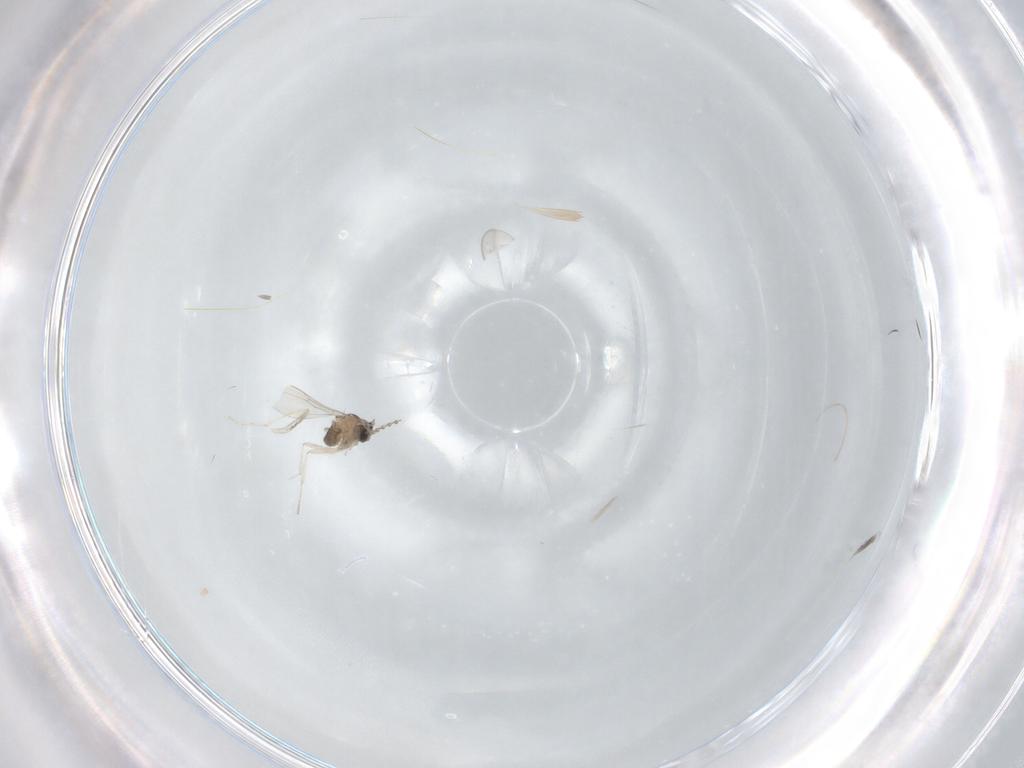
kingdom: Animalia
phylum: Arthropoda
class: Insecta
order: Diptera
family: Cecidomyiidae
